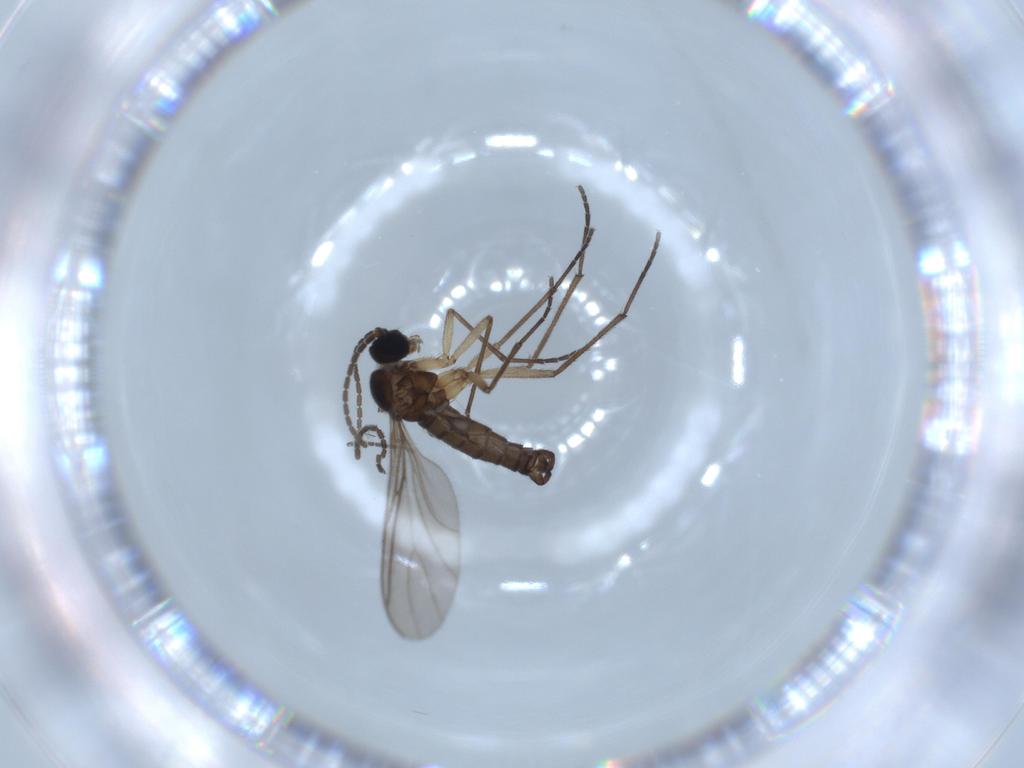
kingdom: Animalia
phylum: Arthropoda
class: Insecta
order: Diptera
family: Sciaridae
